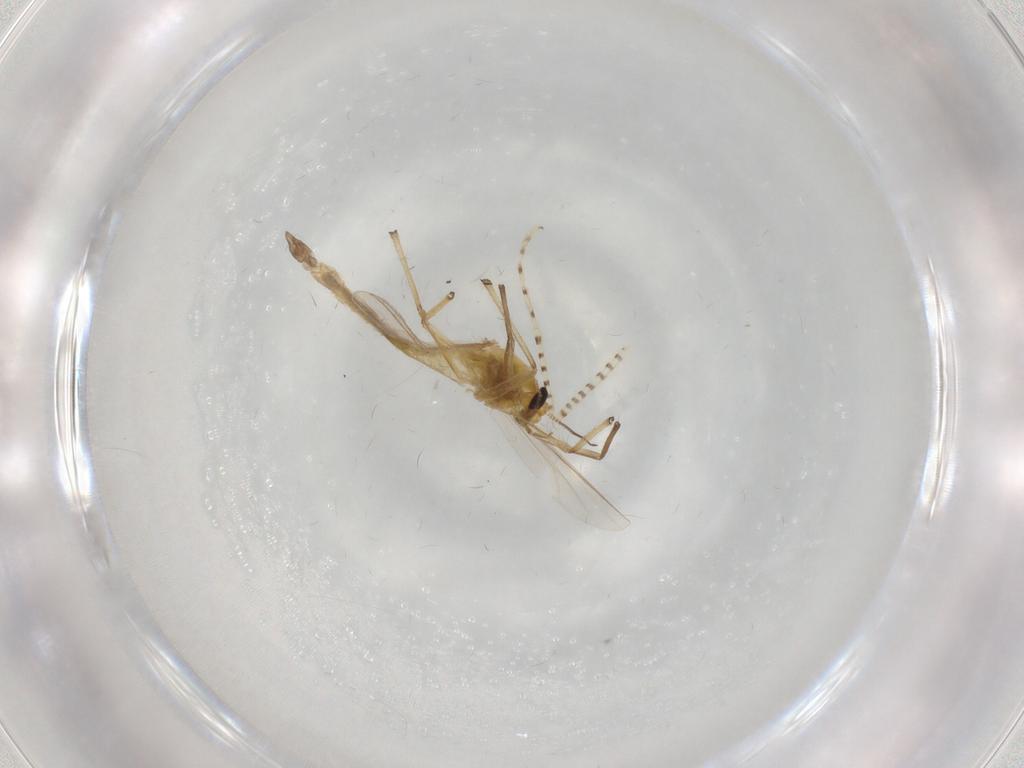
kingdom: Animalia
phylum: Arthropoda
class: Insecta
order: Diptera
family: Chironomidae
